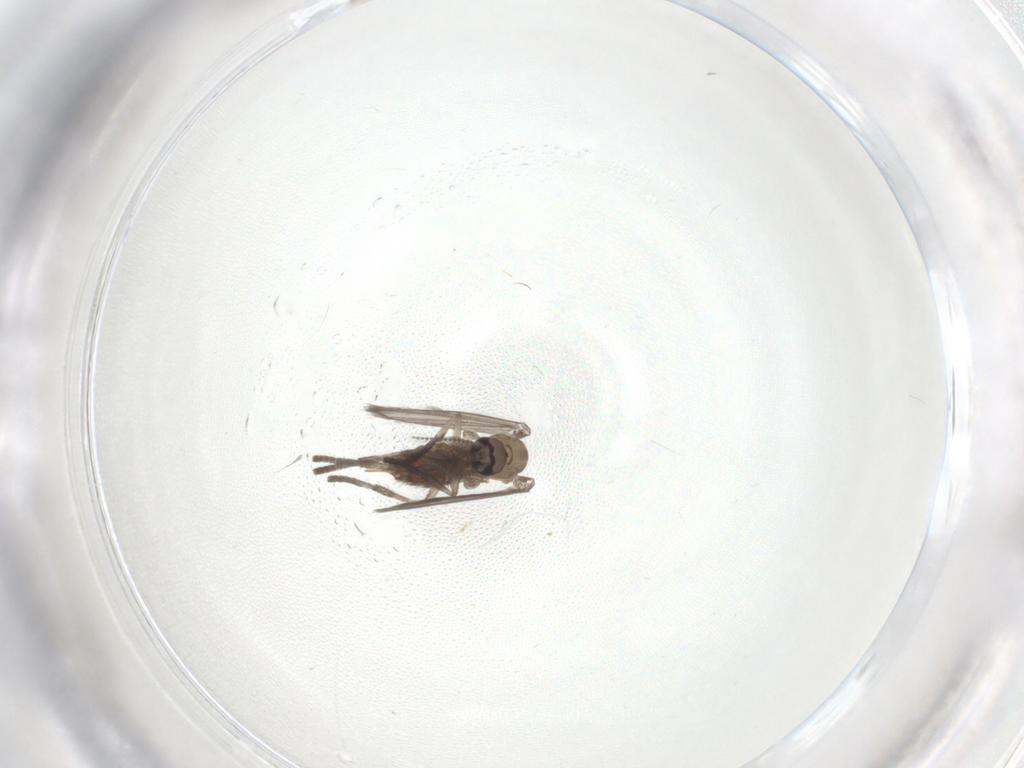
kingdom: Animalia
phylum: Arthropoda
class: Insecta
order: Diptera
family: Psychodidae
